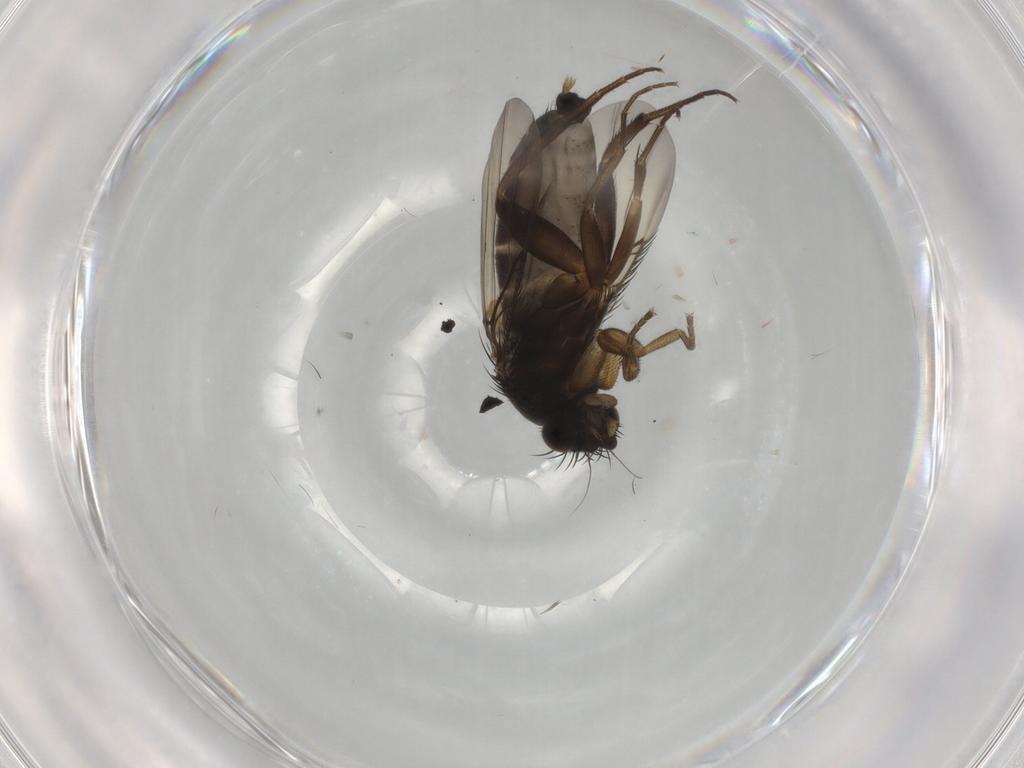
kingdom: Animalia
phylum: Arthropoda
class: Insecta
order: Diptera
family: Phoridae
